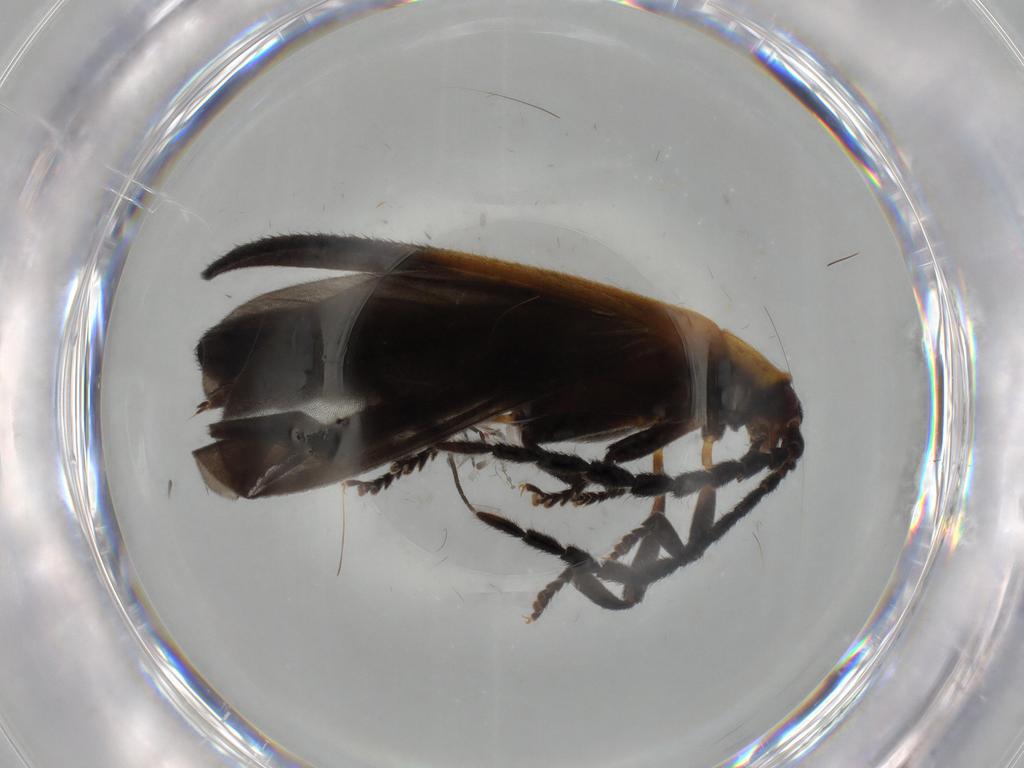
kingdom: Animalia
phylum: Arthropoda
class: Insecta
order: Coleoptera
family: Lycidae
